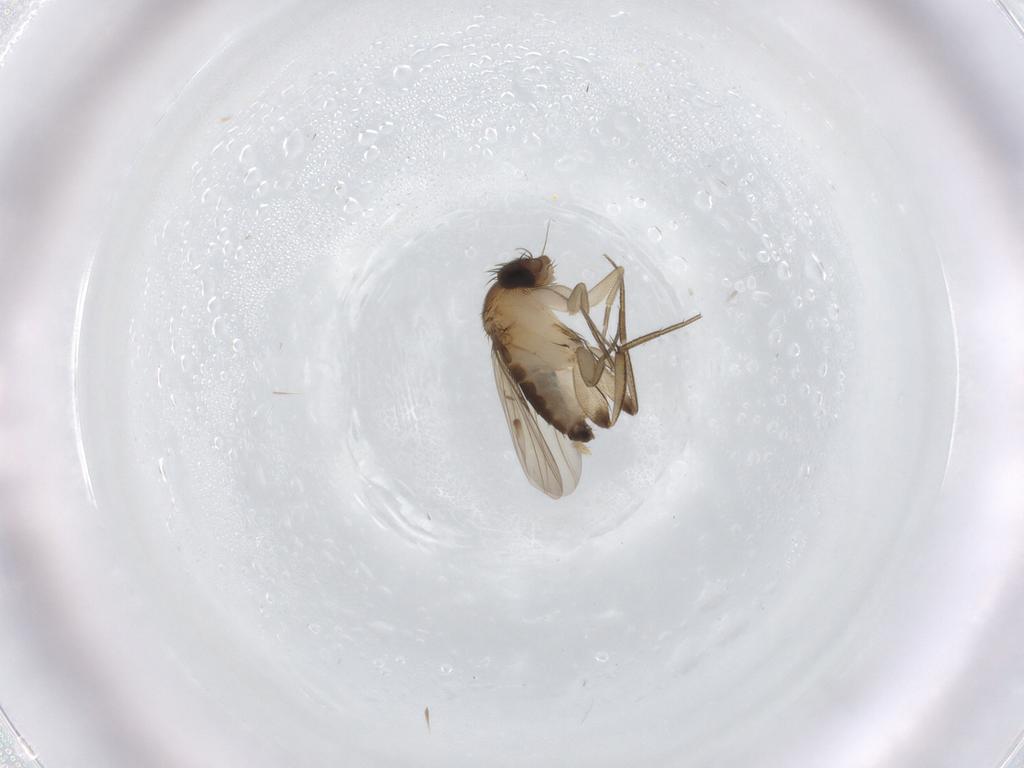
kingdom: Animalia
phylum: Arthropoda
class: Insecta
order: Diptera
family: Phoridae
